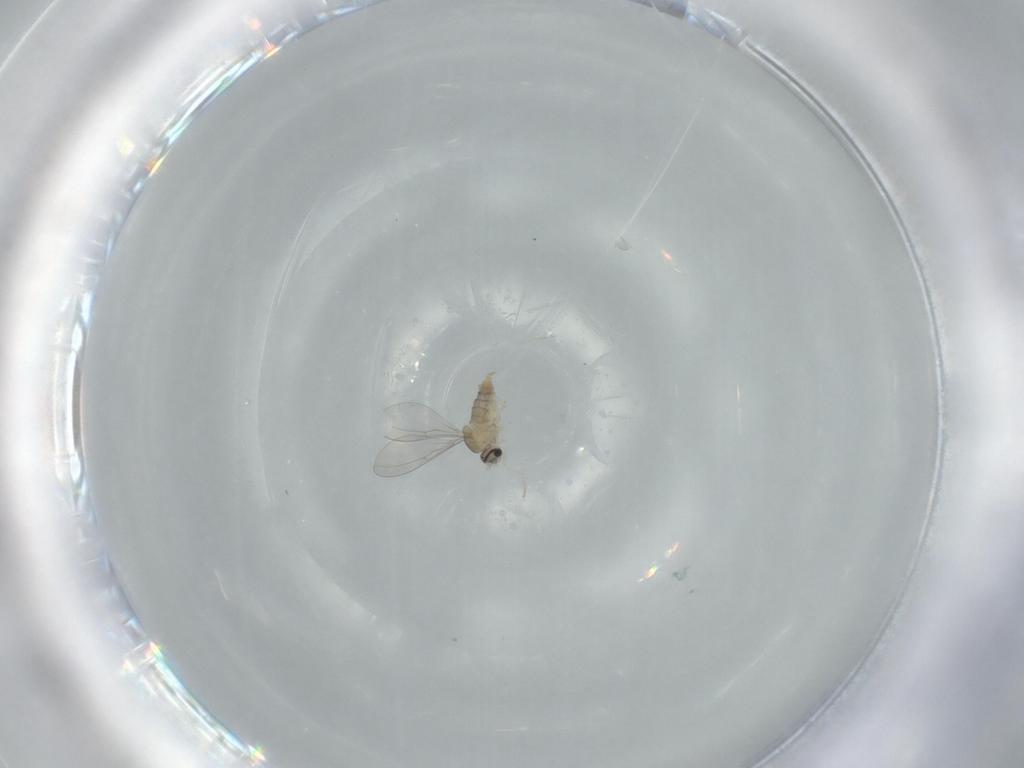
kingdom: Animalia
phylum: Arthropoda
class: Insecta
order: Diptera
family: Cecidomyiidae
